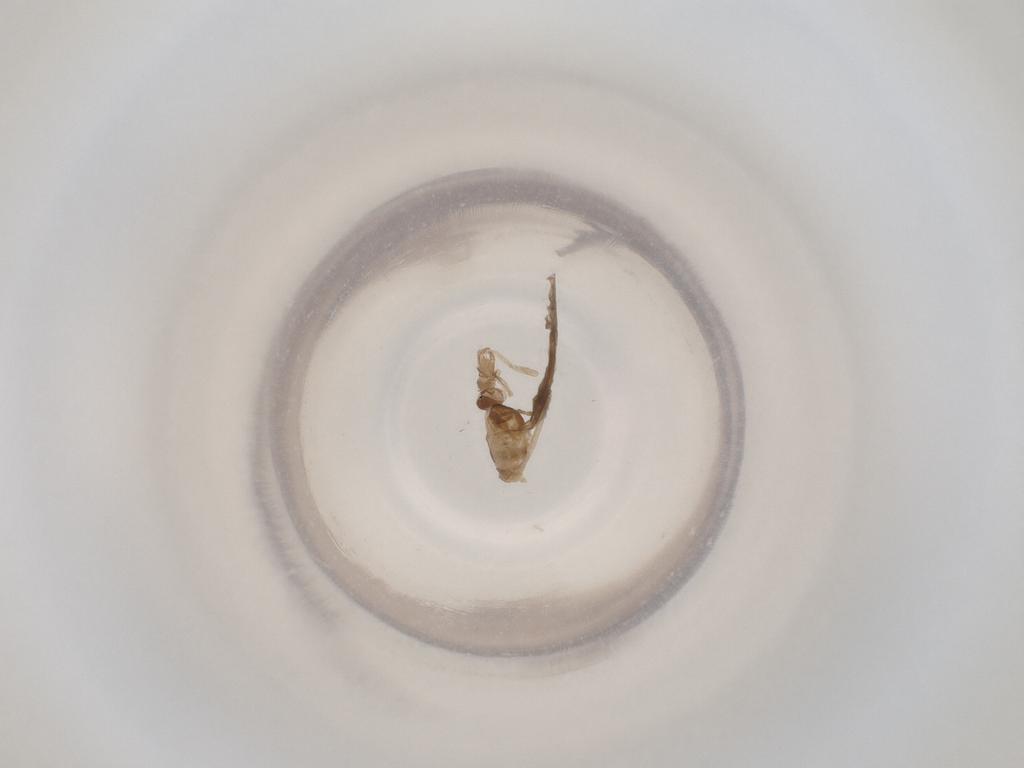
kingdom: Animalia
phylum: Arthropoda
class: Insecta
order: Diptera
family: Cecidomyiidae
